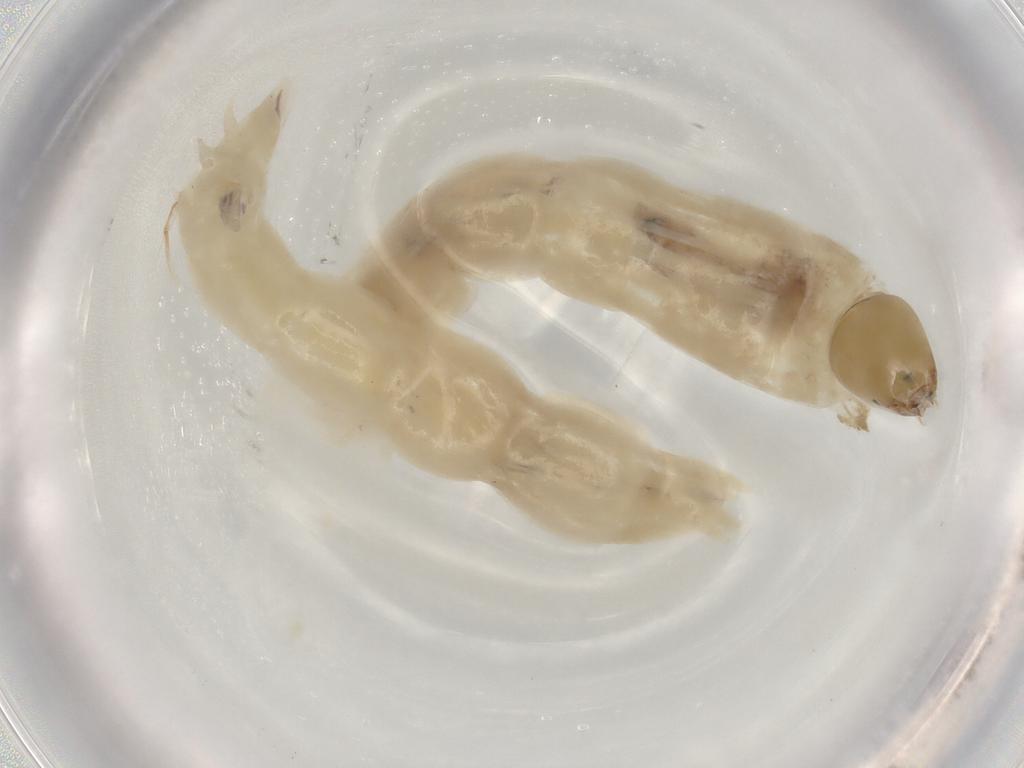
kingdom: Animalia
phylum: Arthropoda
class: Insecta
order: Diptera
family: Chironomidae
